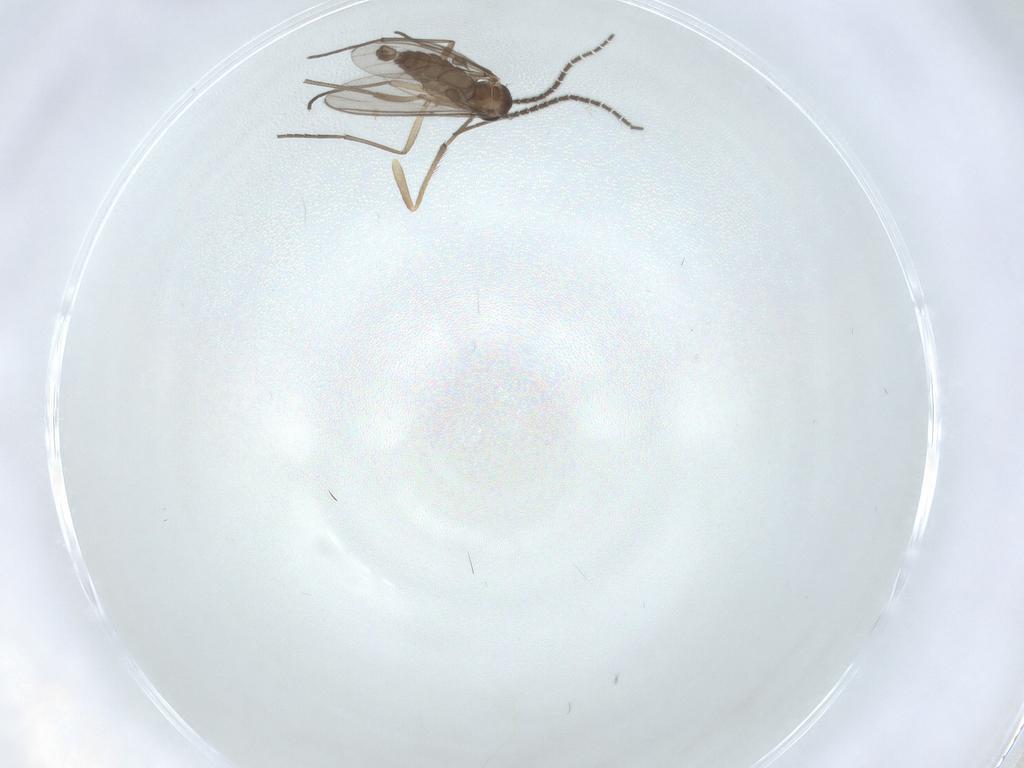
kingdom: Animalia
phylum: Arthropoda
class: Insecta
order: Diptera
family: Sciaridae
